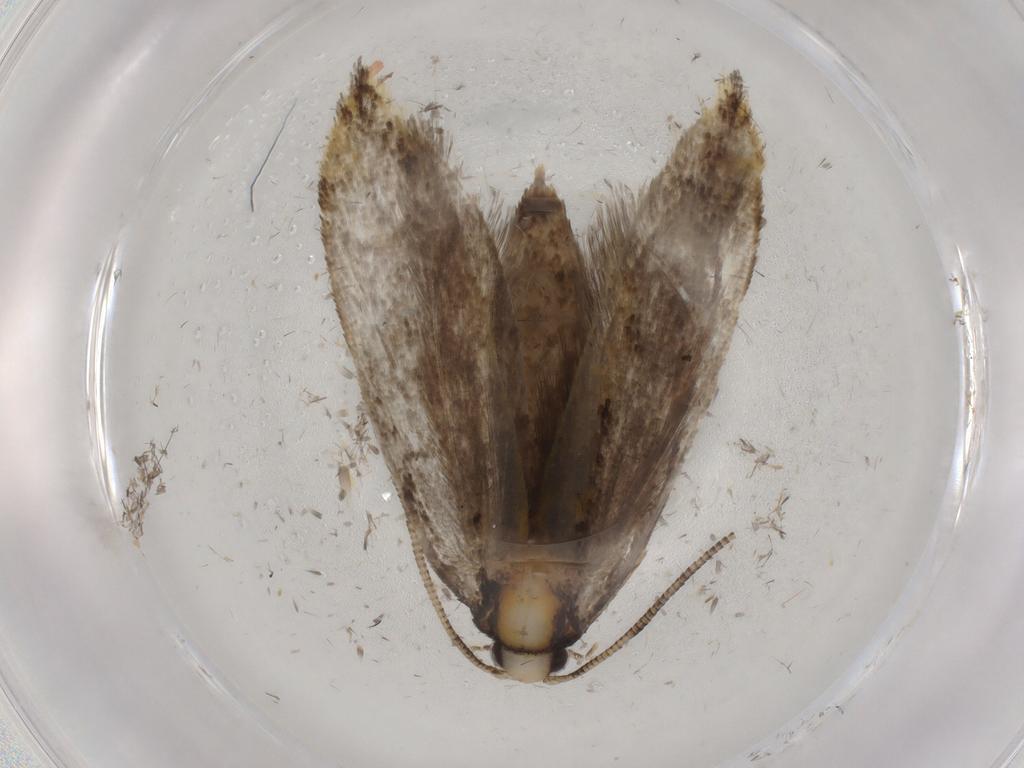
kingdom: Animalia
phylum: Arthropoda
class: Insecta
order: Lepidoptera
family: Tineidae
